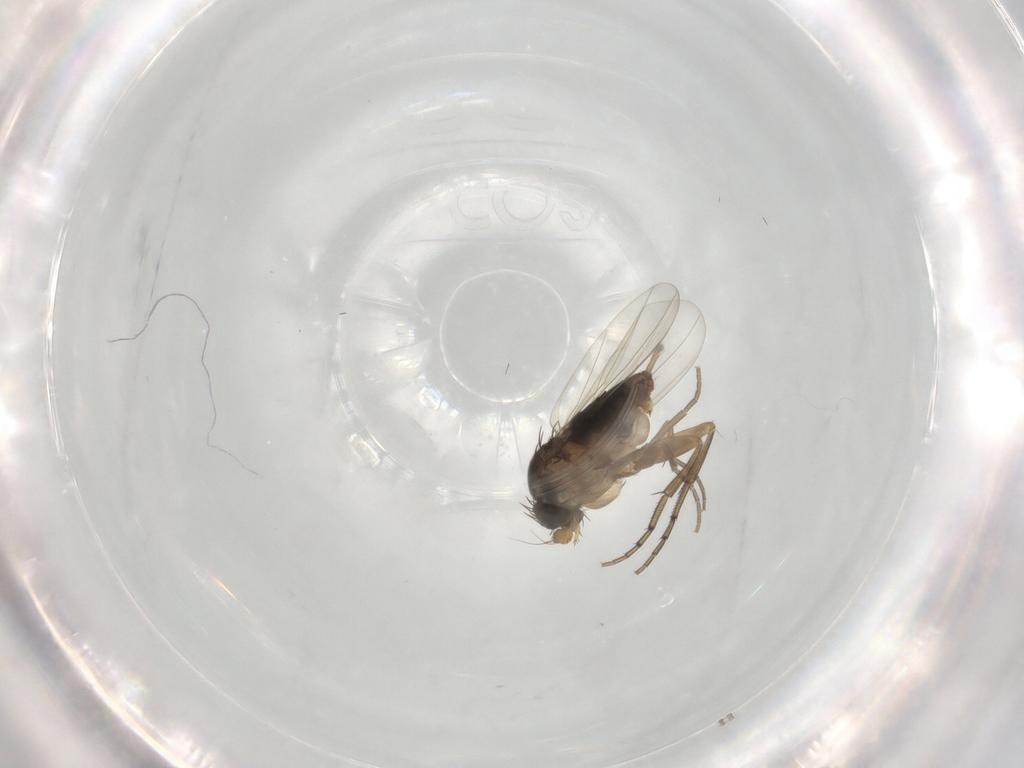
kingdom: Animalia
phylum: Arthropoda
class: Insecta
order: Diptera
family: Phoridae
